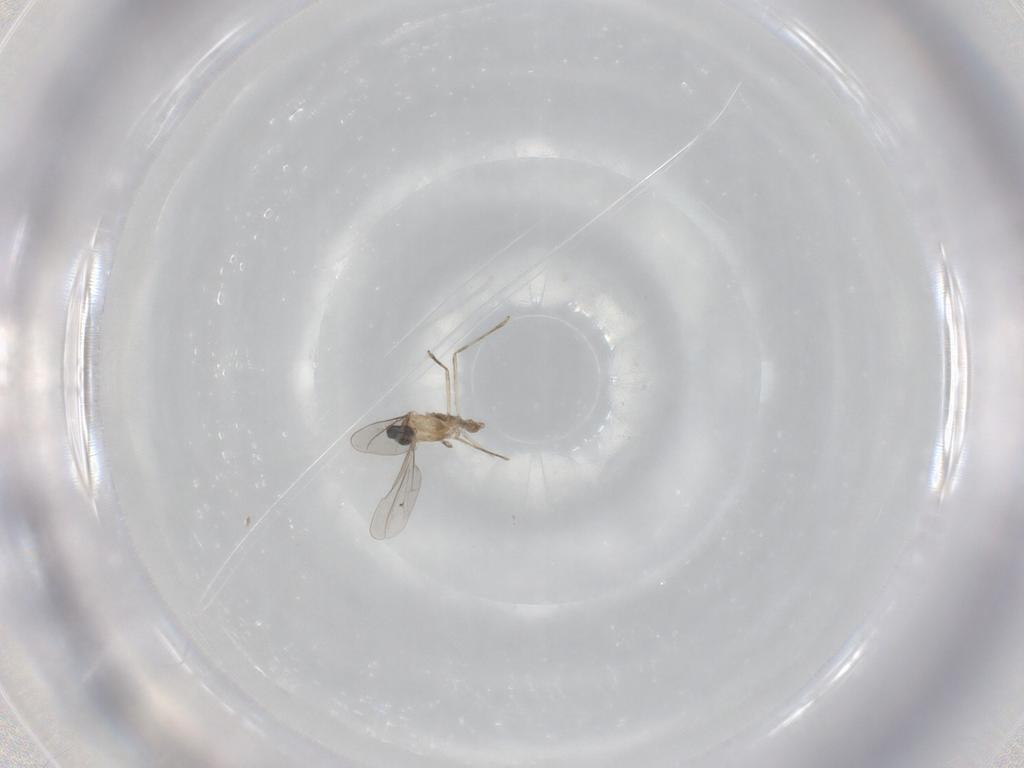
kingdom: Animalia
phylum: Arthropoda
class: Insecta
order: Diptera
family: Cecidomyiidae
